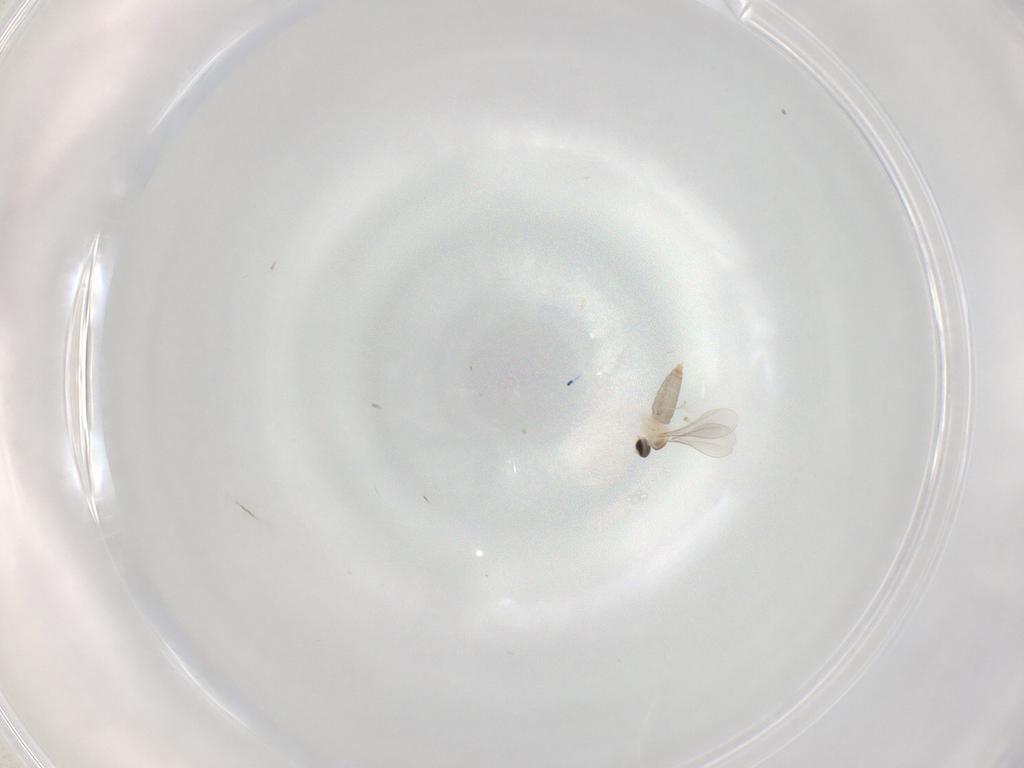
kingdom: Animalia
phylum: Arthropoda
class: Insecta
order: Diptera
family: Cecidomyiidae
